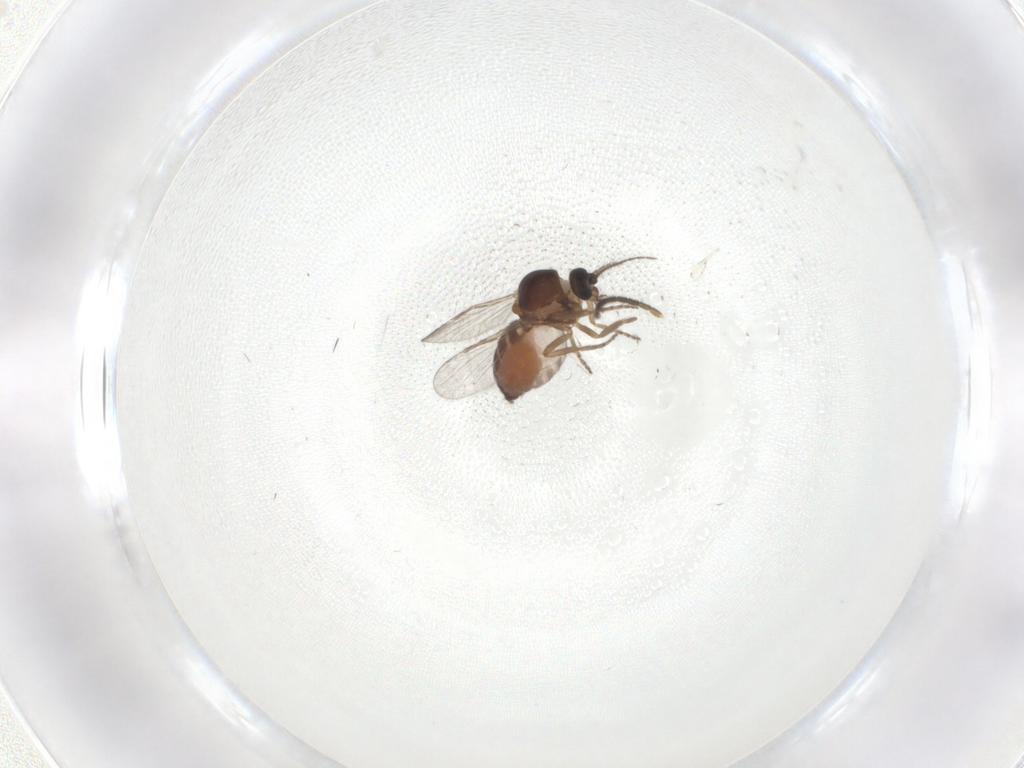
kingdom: Animalia
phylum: Arthropoda
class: Insecta
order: Diptera
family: Sciaridae
